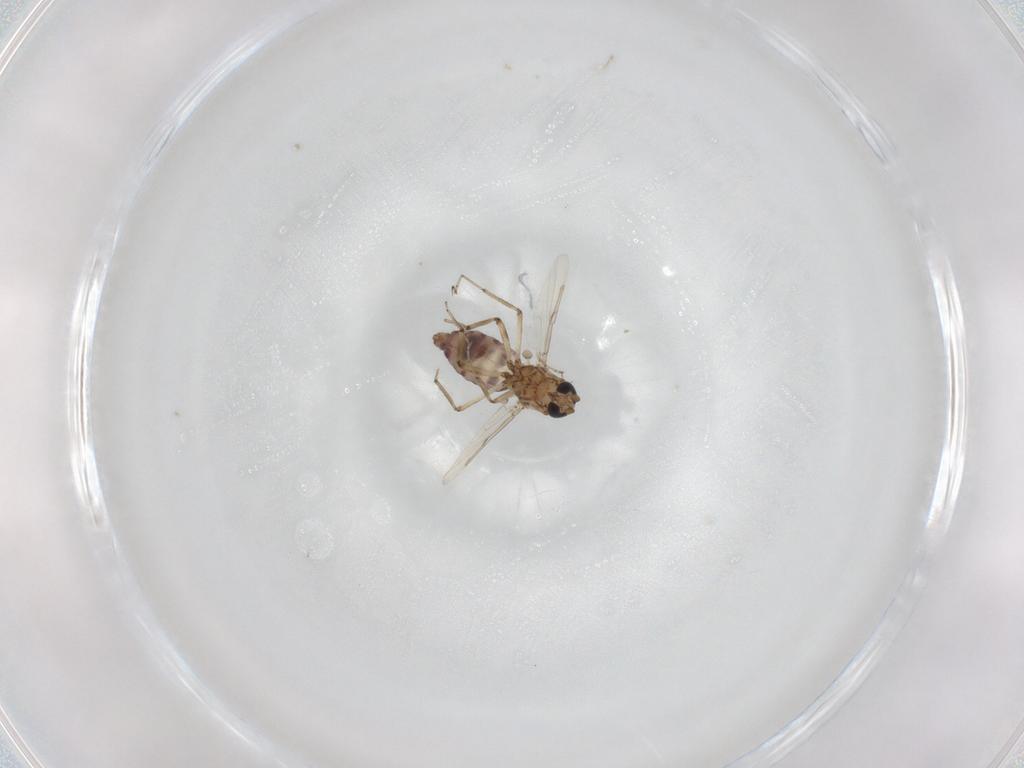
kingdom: Animalia
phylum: Arthropoda
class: Insecta
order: Diptera
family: Ceratopogonidae
